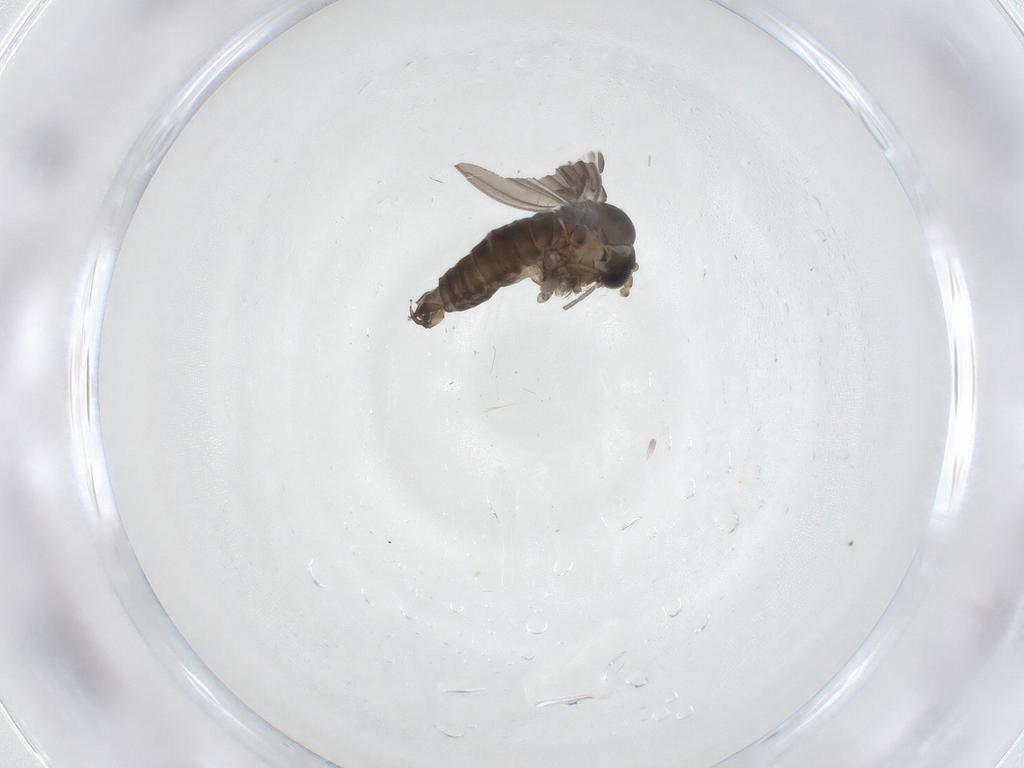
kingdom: Animalia
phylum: Arthropoda
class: Insecta
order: Diptera
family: Psychodidae
